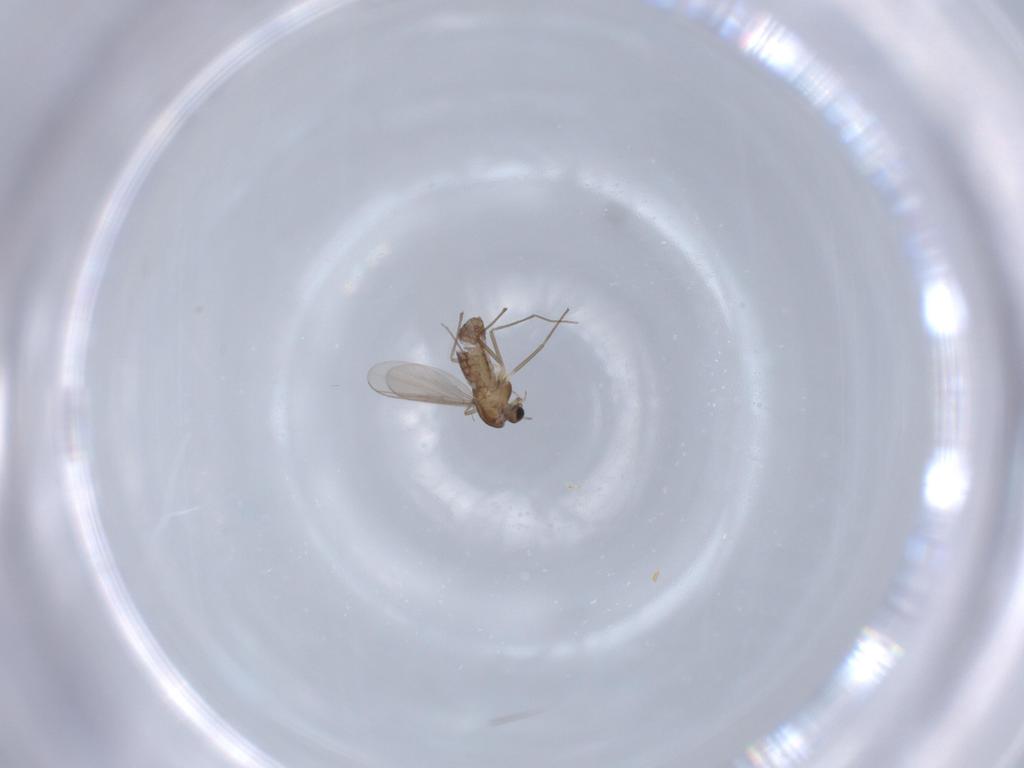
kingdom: Animalia
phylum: Arthropoda
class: Insecta
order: Diptera
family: Chironomidae
